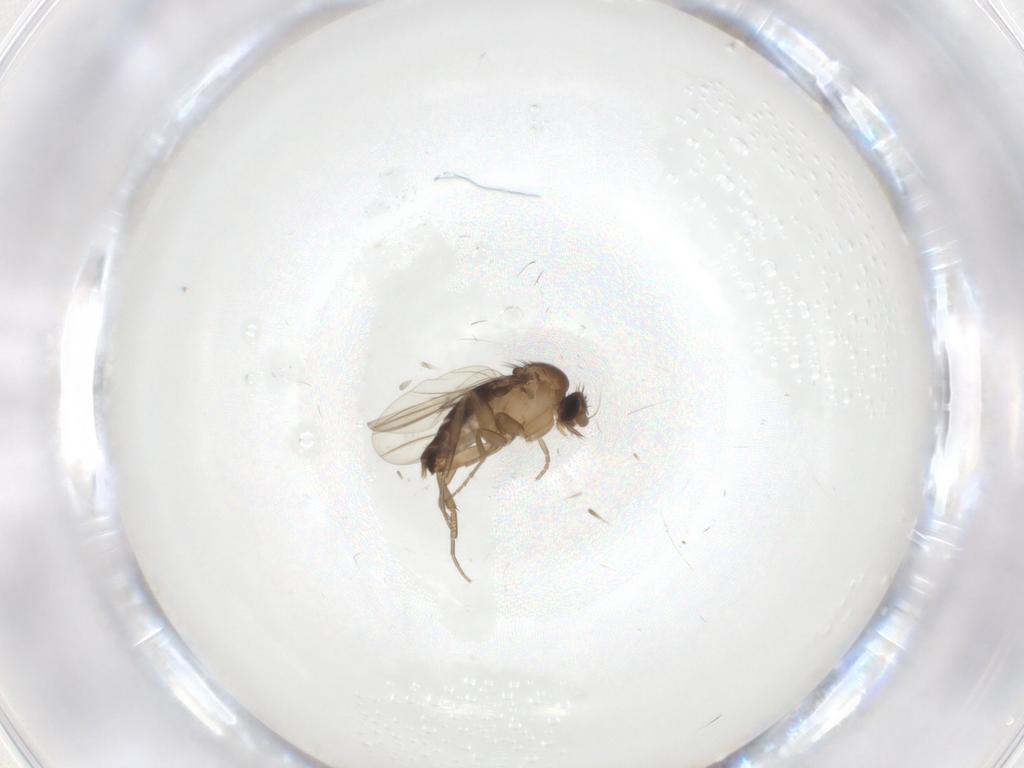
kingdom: Animalia
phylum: Arthropoda
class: Insecta
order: Diptera
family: Phoridae
